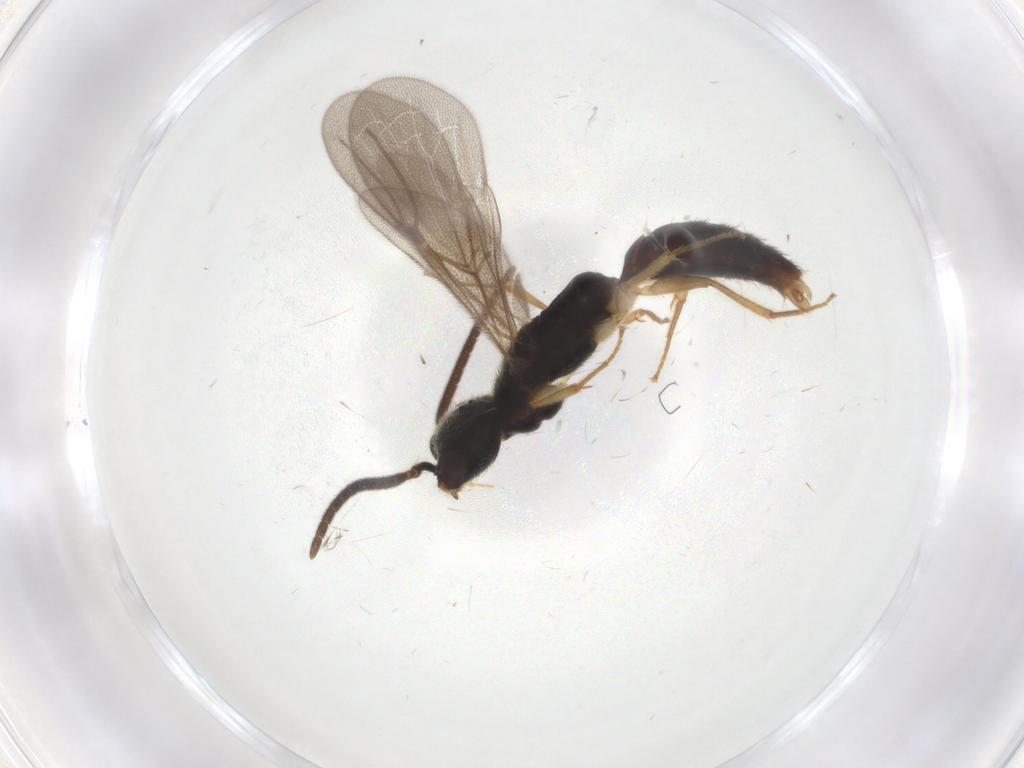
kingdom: Animalia
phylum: Arthropoda
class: Insecta
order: Hymenoptera
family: Bethylidae
